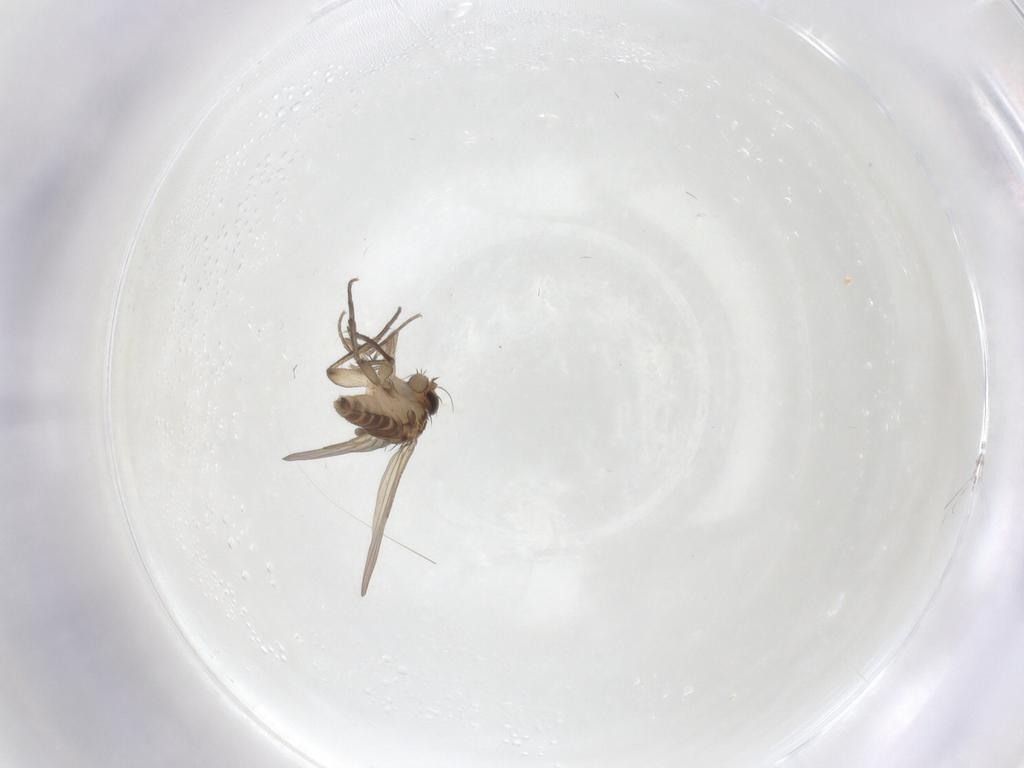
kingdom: Animalia
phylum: Arthropoda
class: Insecta
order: Diptera
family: Phoridae
